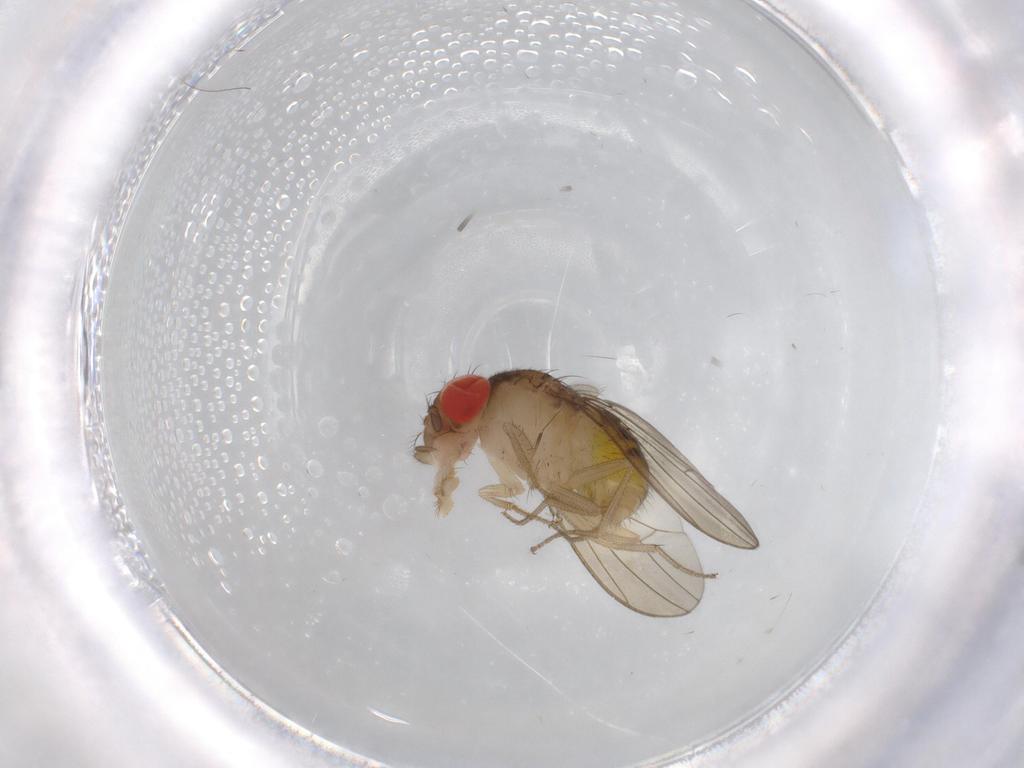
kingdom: Animalia
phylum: Arthropoda
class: Insecta
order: Diptera
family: Drosophilidae
